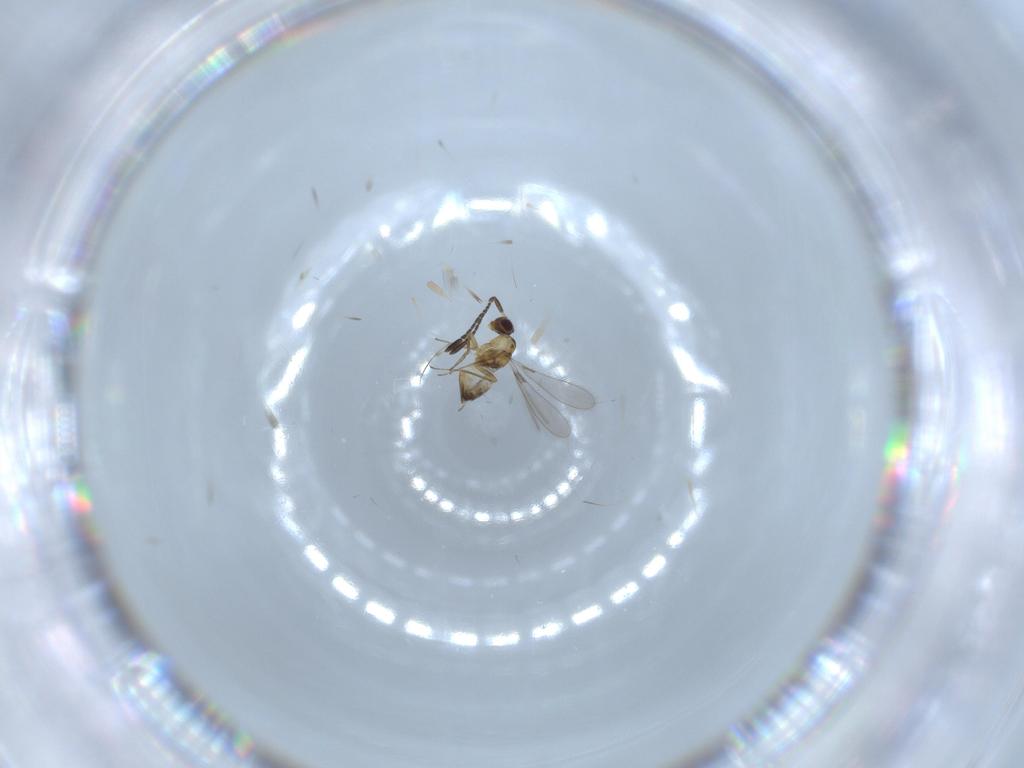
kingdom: Animalia
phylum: Arthropoda
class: Insecta
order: Hymenoptera
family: Mymaridae
